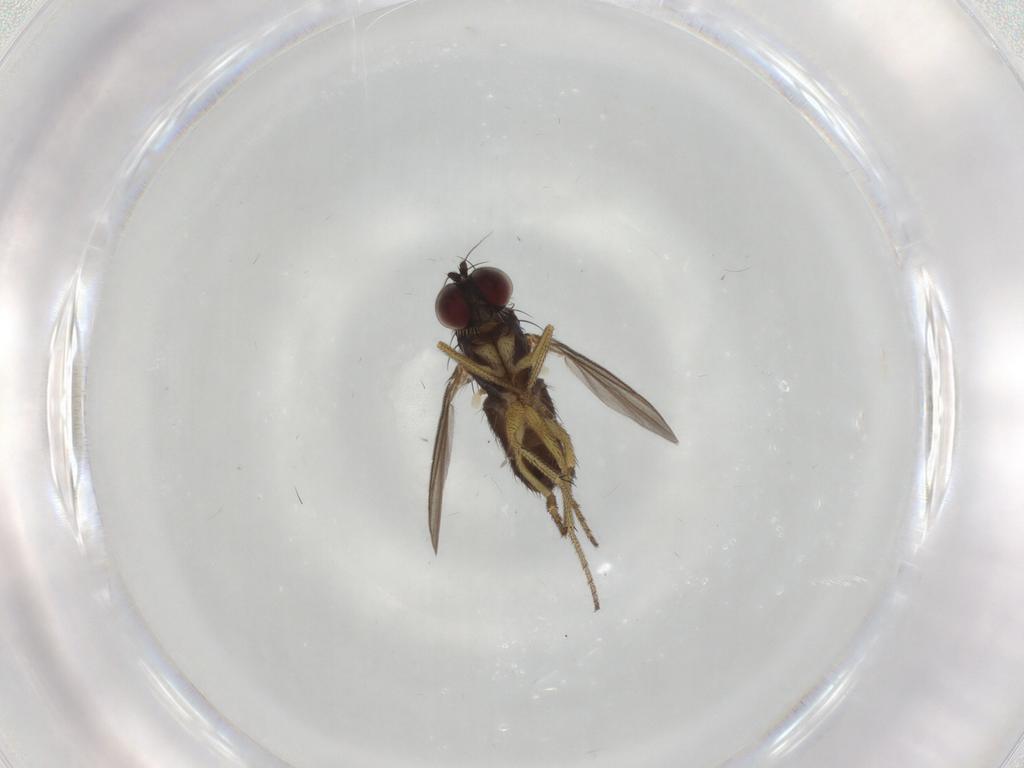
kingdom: Animalia
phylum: Arthropoda
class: Insecta
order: Diptera
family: Dolichopodidae
